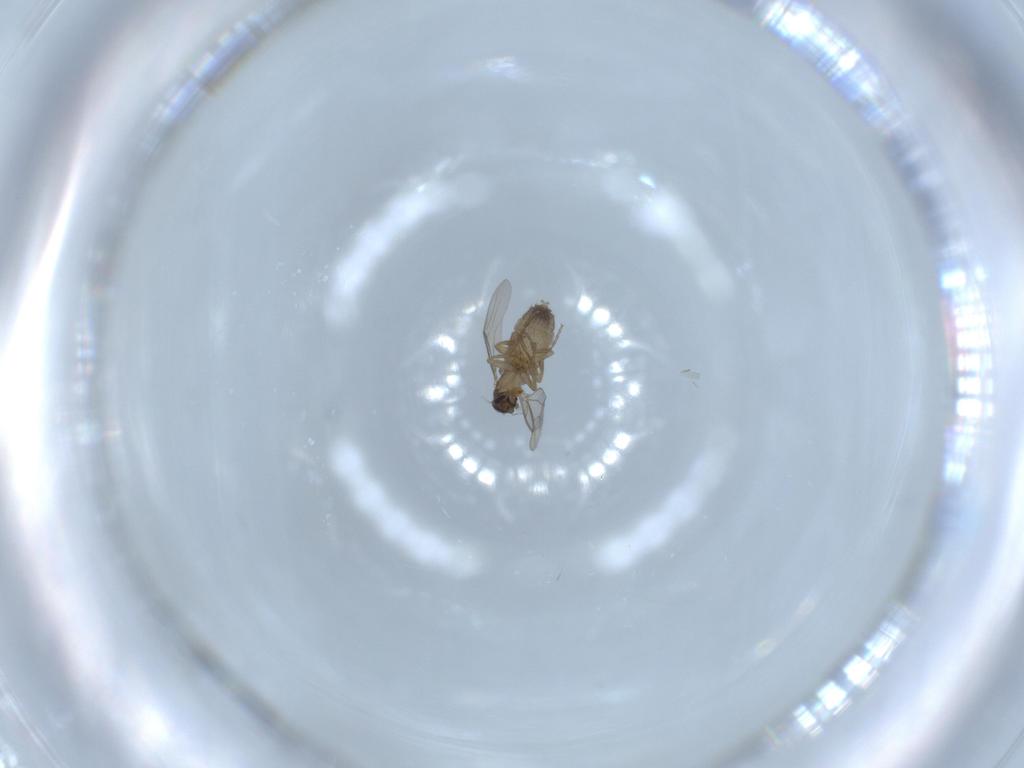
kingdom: Animalia
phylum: Arthropoda
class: Insecta
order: Diptera
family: Phoridae
